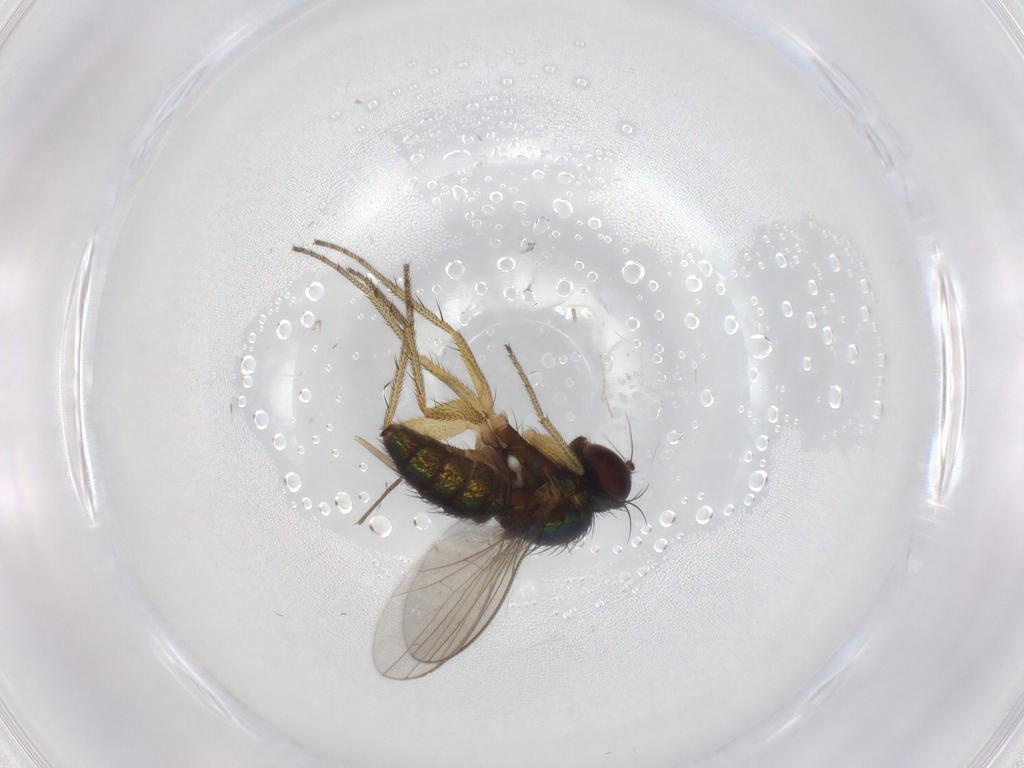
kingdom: Animalia
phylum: Arthropoda
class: Insecta
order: Diptera
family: Dolichopodidae
